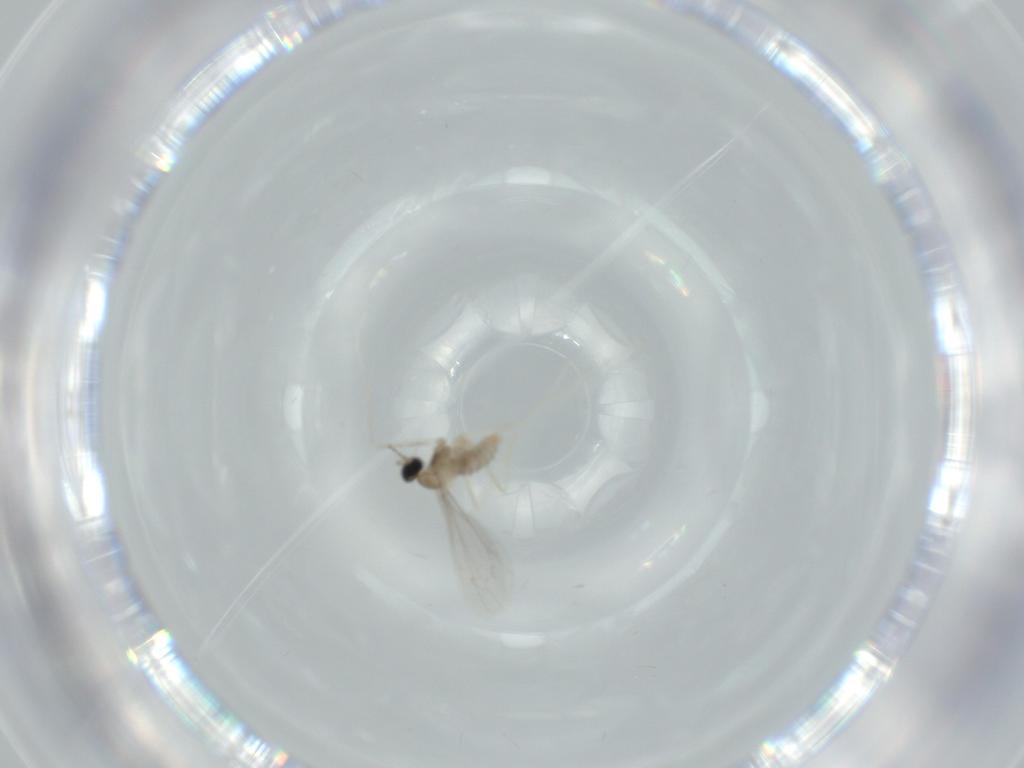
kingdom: Animalia
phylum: Arthropoda
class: Insecta
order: Diptera
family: Cecidomyiidae
